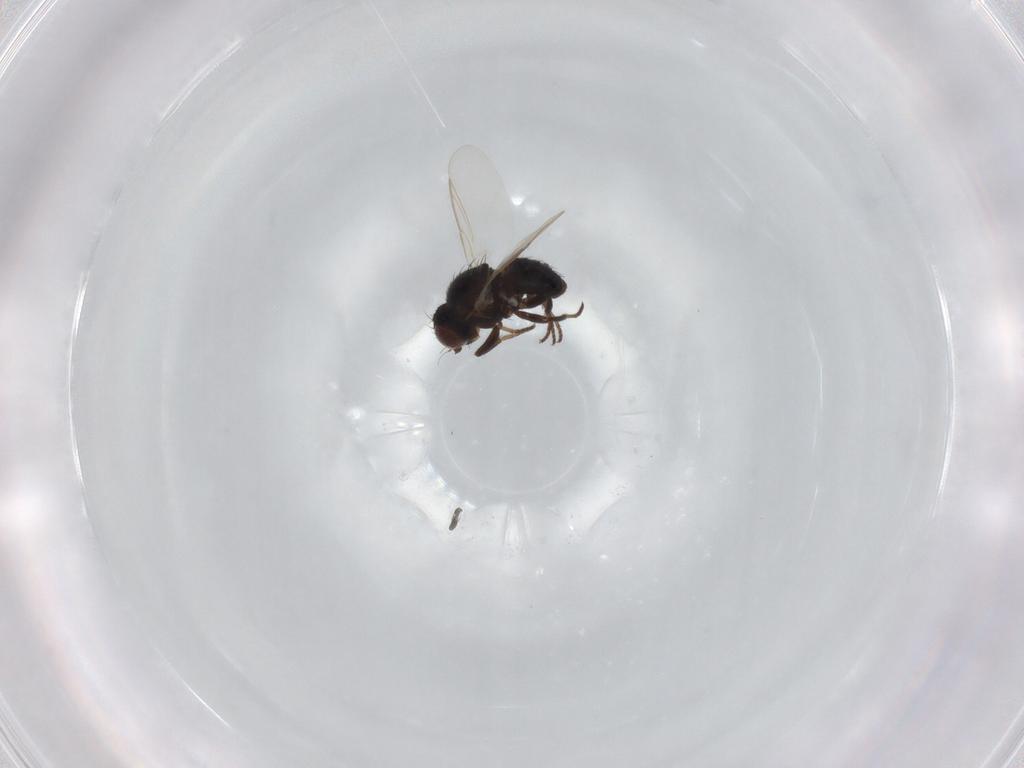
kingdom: Animalia
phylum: Arthropoda
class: Insecta
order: Diptera
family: Agromyzidae
